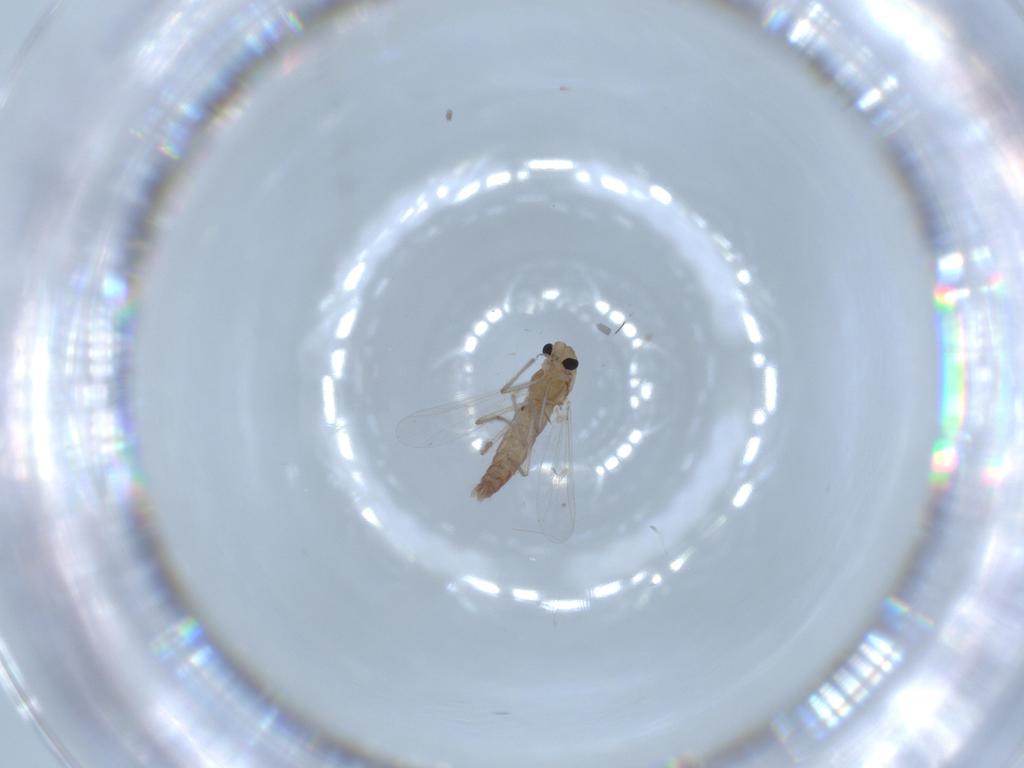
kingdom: Animalia
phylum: Arthropoda
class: Insecta
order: Diptera
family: Chironomidae
